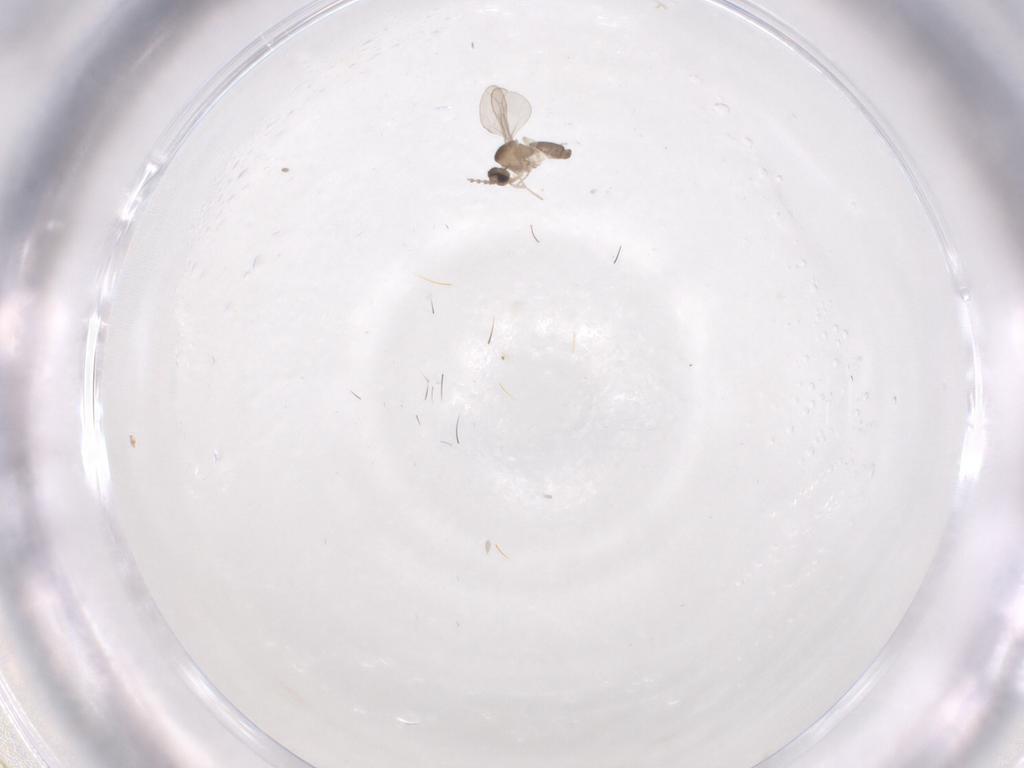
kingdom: Animalia
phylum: Arthropoda
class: Insecta
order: Diptera
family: Cecidomyiidae
